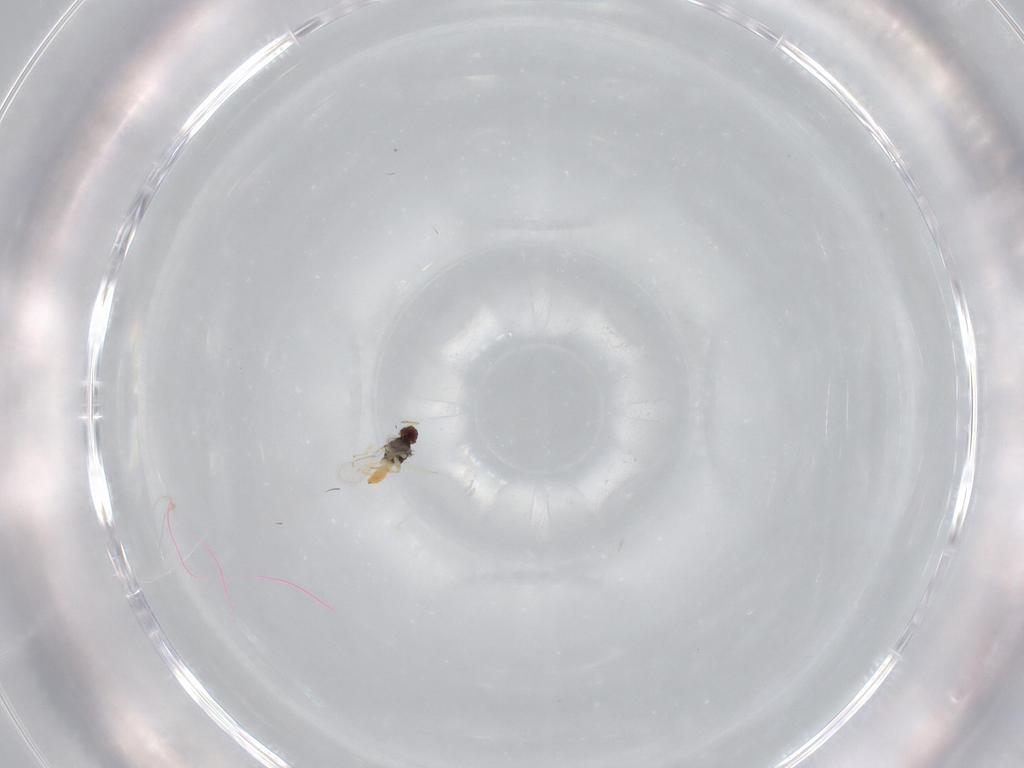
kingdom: Animalia
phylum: Arthropoda
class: Insecta
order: Hymenoptera
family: Eulophidae
